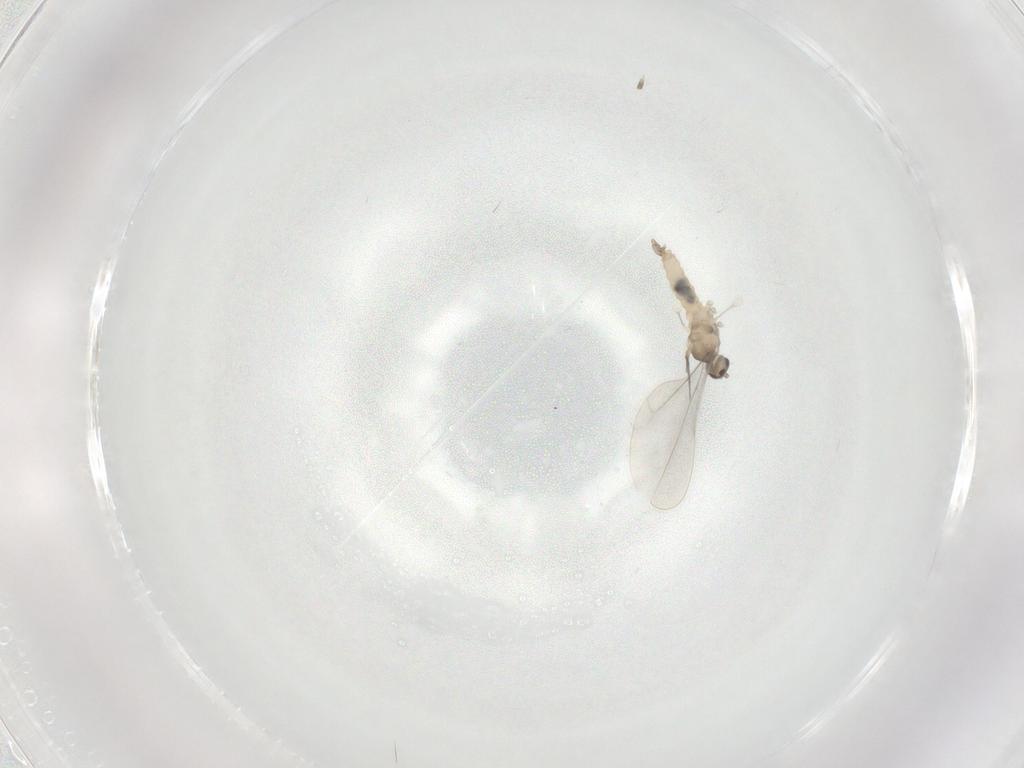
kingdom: Animalia
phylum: Arthropoda
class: Insecta
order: Diptera
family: Cecidomyiidae
